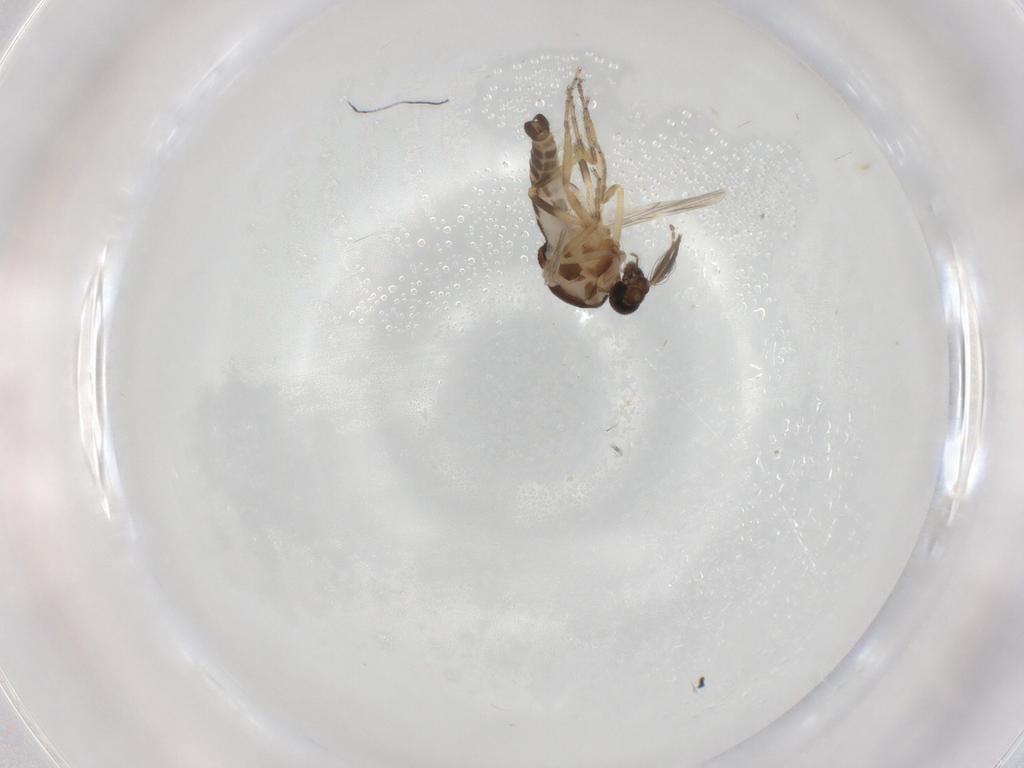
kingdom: Animalia
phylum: Arthropoda
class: Insecta
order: Diptera
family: Ceratopogonidae
